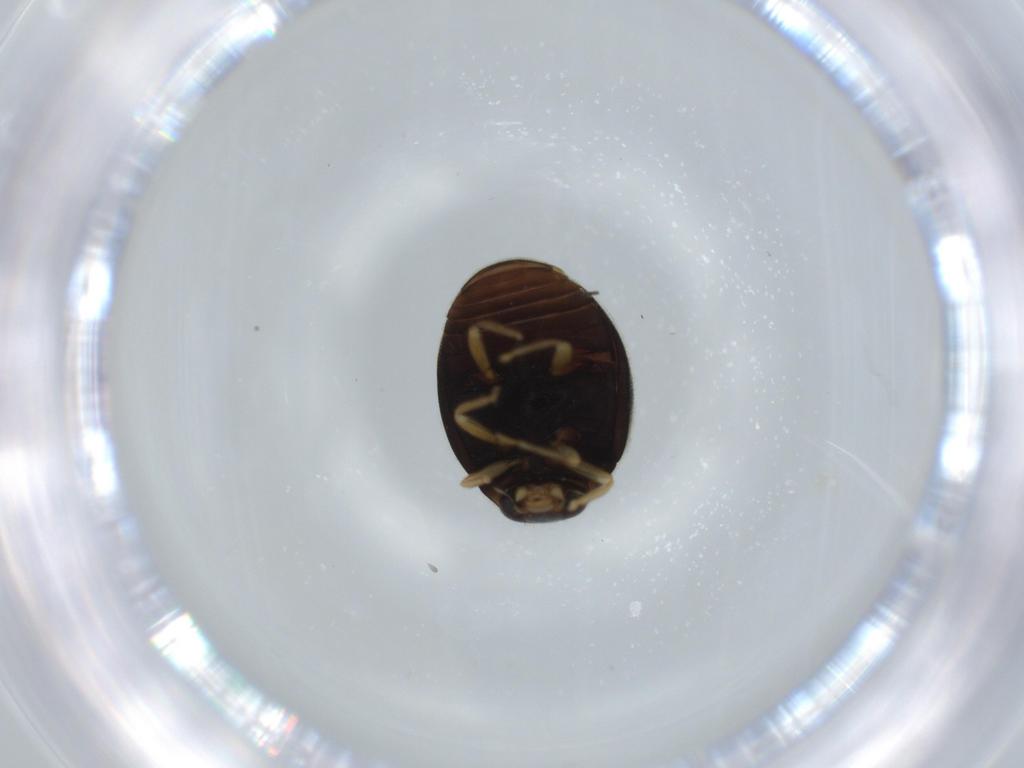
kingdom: Animalia
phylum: Arthropoda
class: Insecta
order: Coleoptera
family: Coccinellidae
